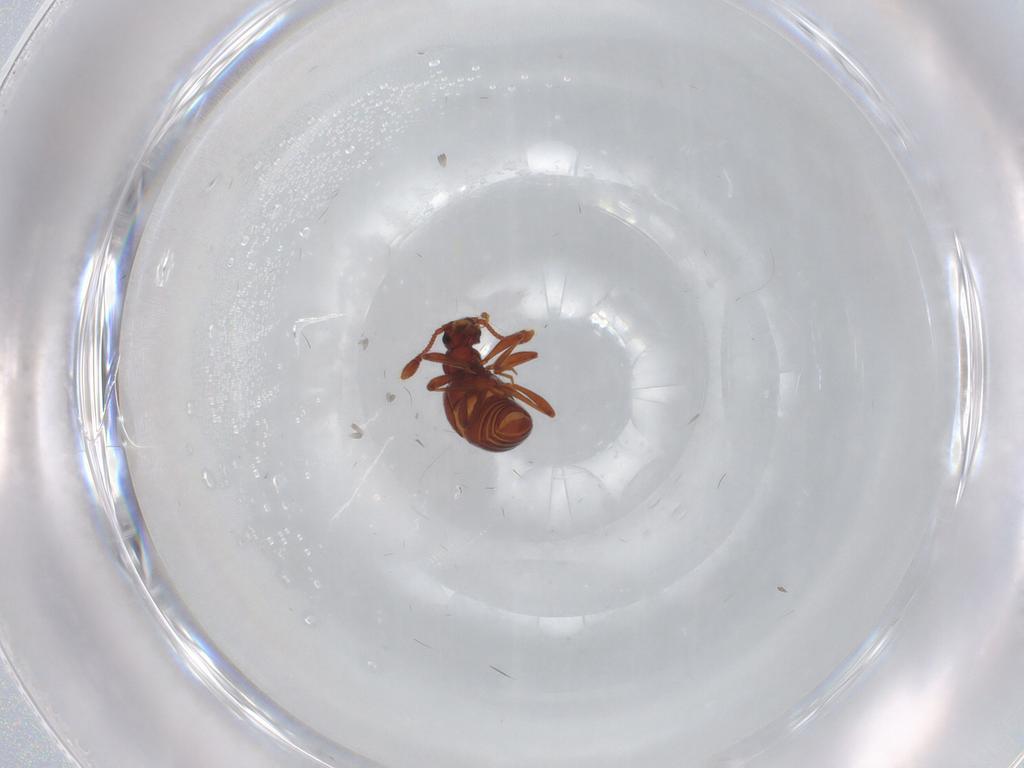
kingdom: Animalia
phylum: Arthropoda
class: Insecta
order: Coleoptera
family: Staphylinidae
